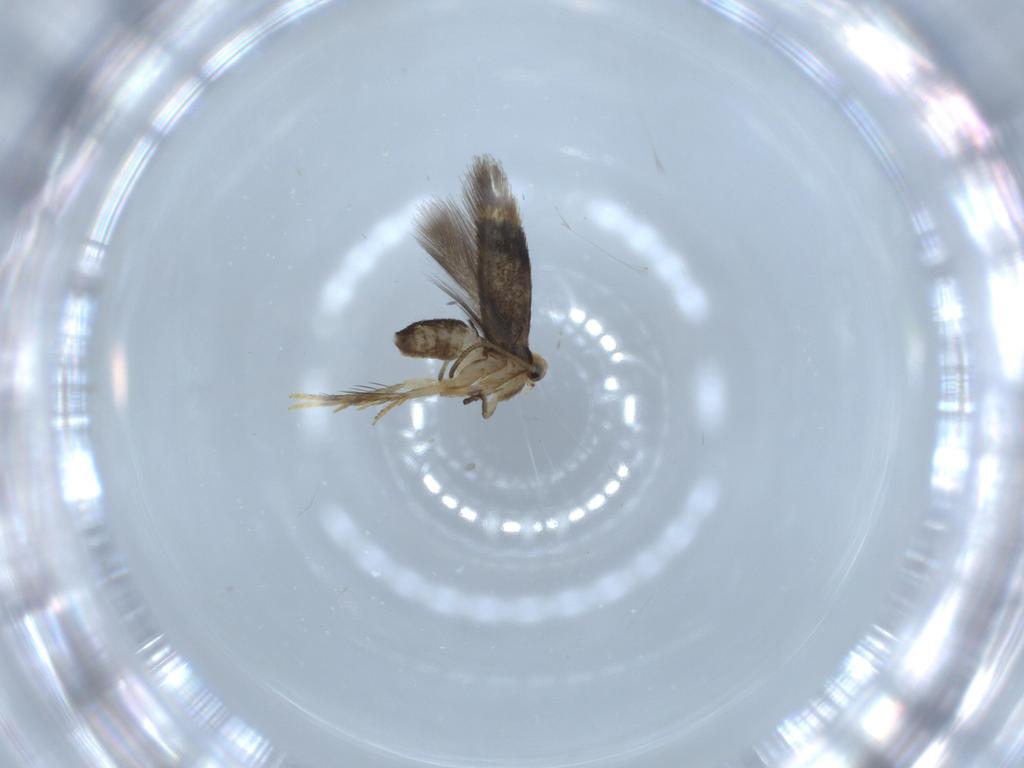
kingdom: Animalia
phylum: Arthropoda
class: Insecta
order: Lepidoptera
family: Nepticulidae
